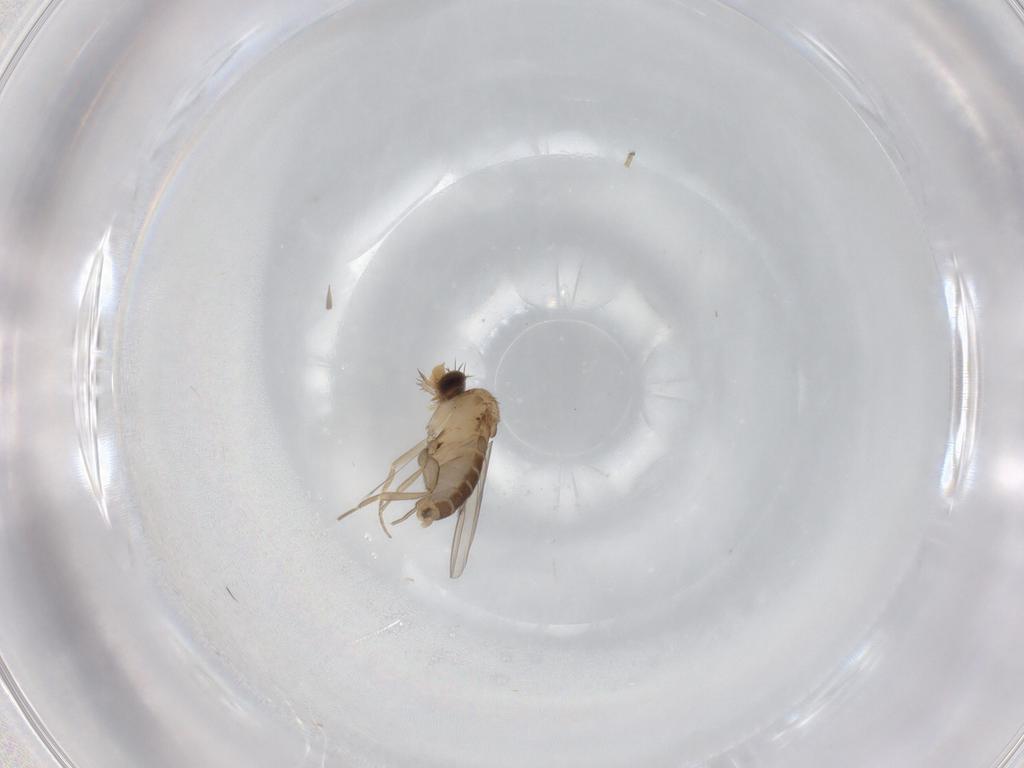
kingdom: Animalia
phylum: Arthropoda
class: Insecta
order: Diptera
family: Phoridae
